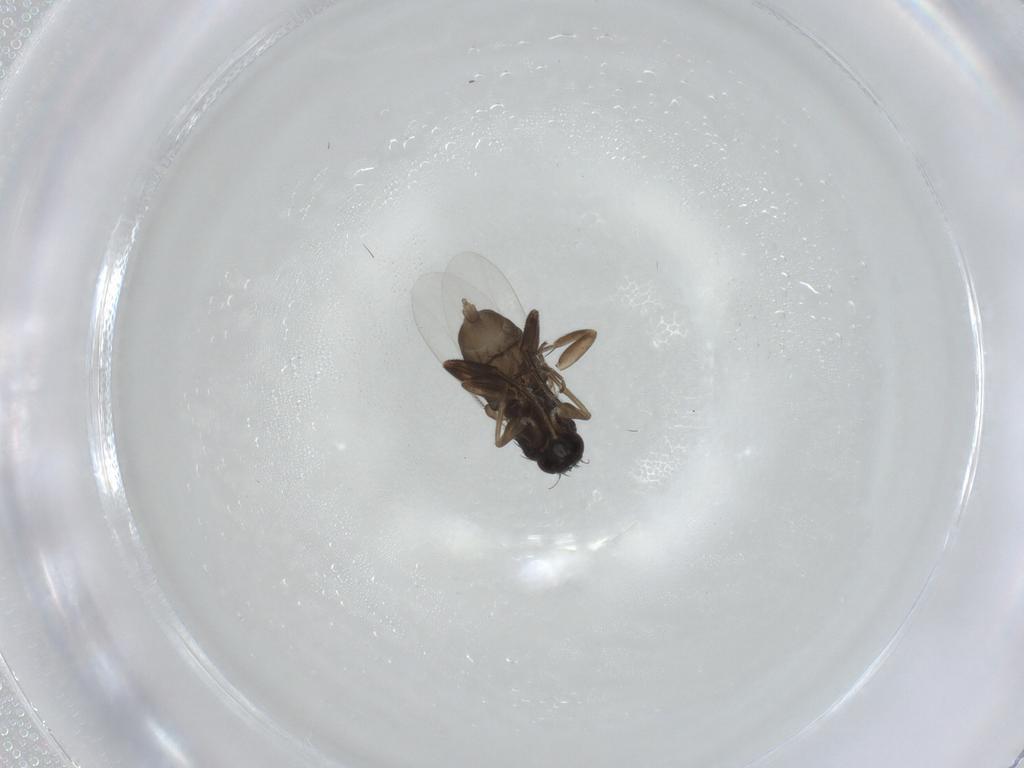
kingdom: Animalia
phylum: Arthropoda
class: Insecta
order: Diptera
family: Phoridae
